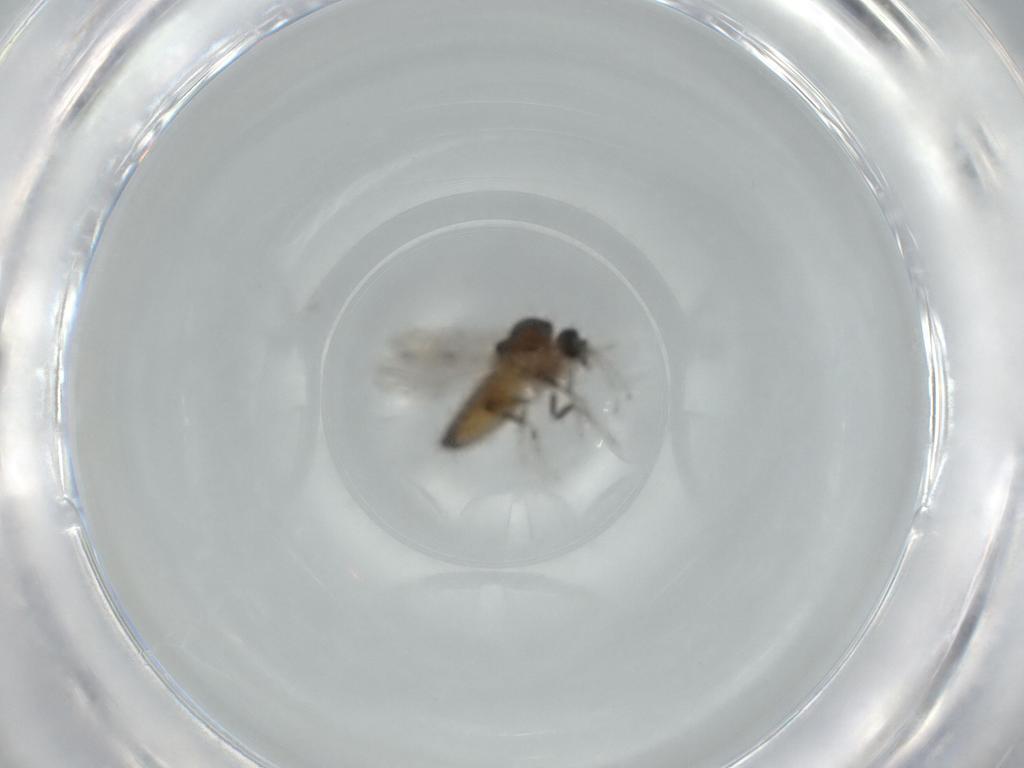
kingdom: Animalia
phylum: Arthropoda
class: Insecta
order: Diptera
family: Ceratopogonidae
